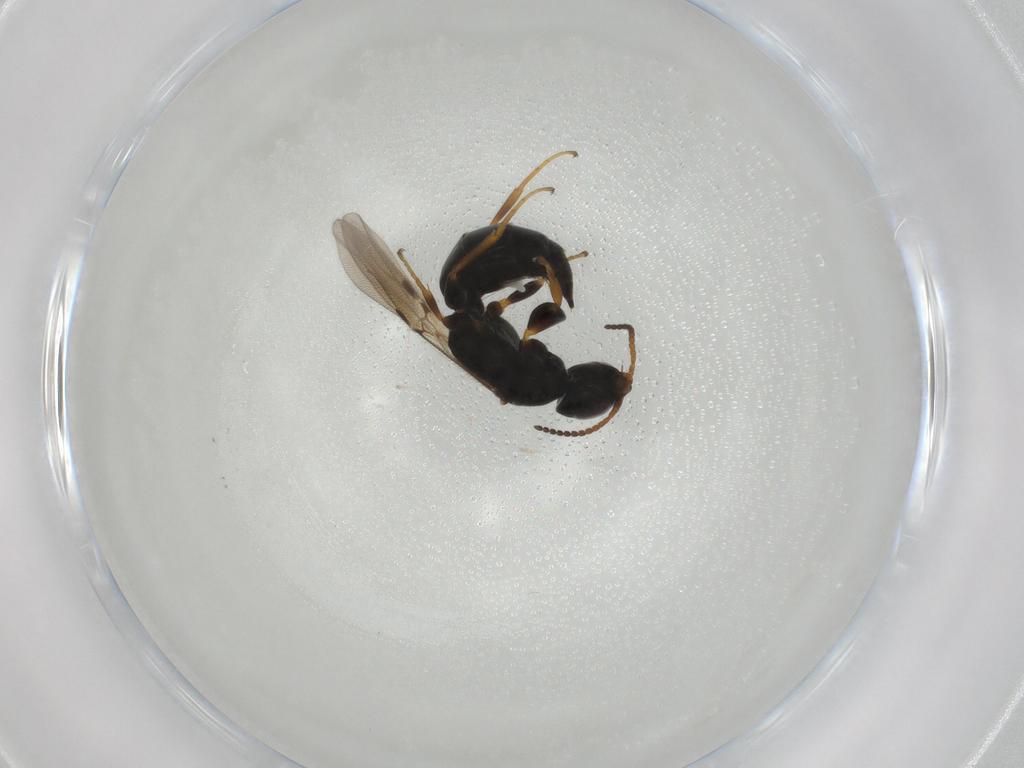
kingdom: Animalia
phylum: Arthropoda
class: Insecta
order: Hymenoptera
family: Bethylidae
